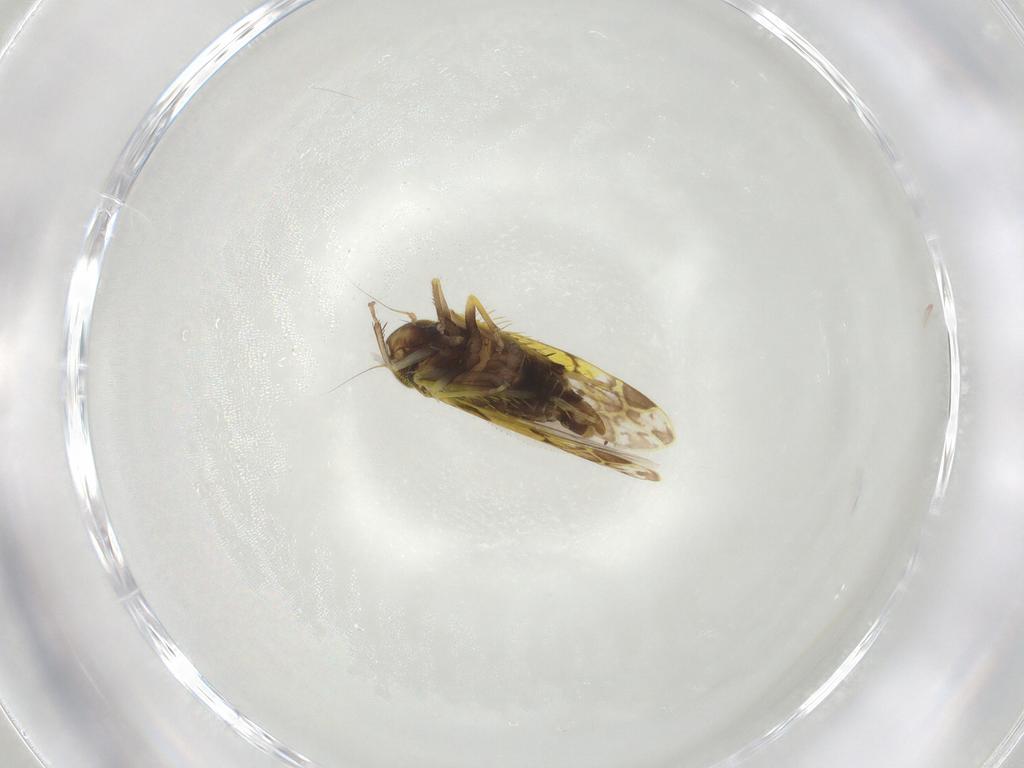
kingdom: Animalia
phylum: Arthropoda
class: Insecta
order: Hemiptera
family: Cicadellidae
